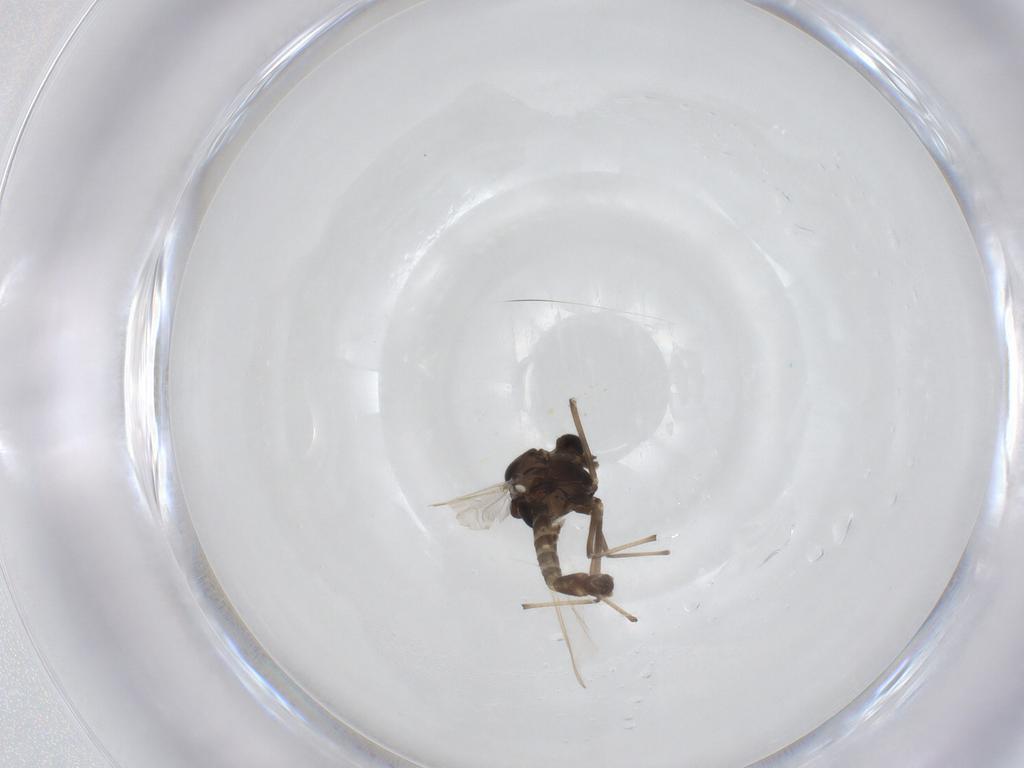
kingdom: Animalia
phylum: Arthropoda
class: Insecta
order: Diptera
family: Chironomidae
